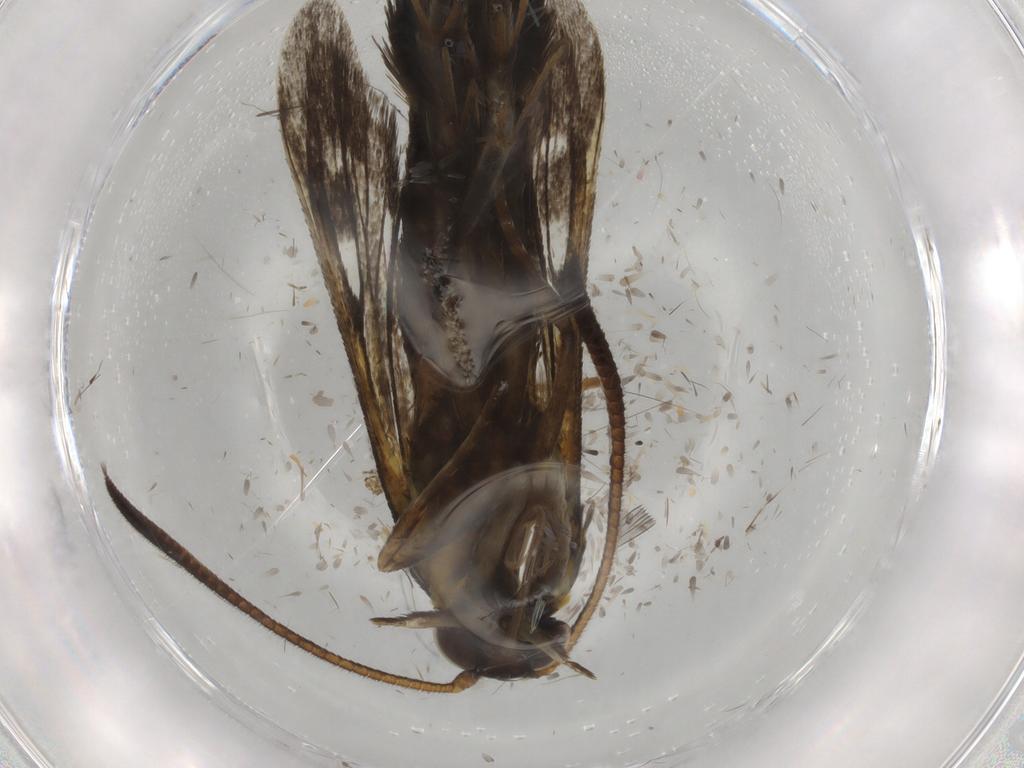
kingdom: Animalia
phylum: Arthropoda
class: Insecta
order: Lepidoptera
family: Sesiidae
